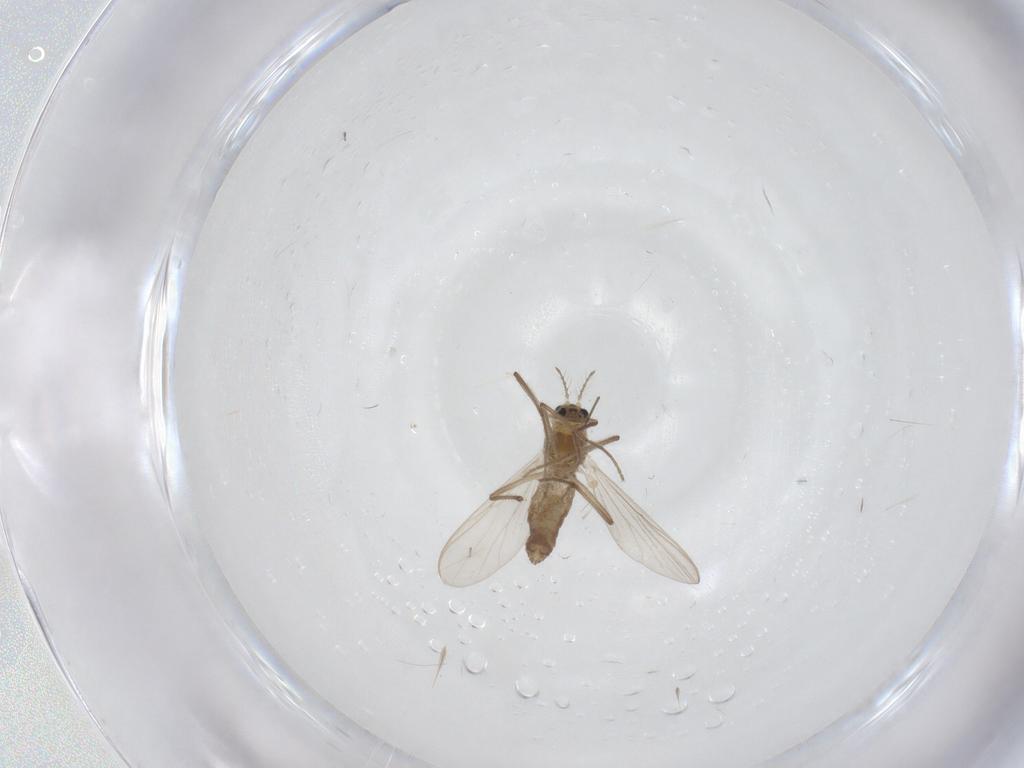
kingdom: Animalia
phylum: Arthropoda
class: Insecta
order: Diptera
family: Chironomidae
